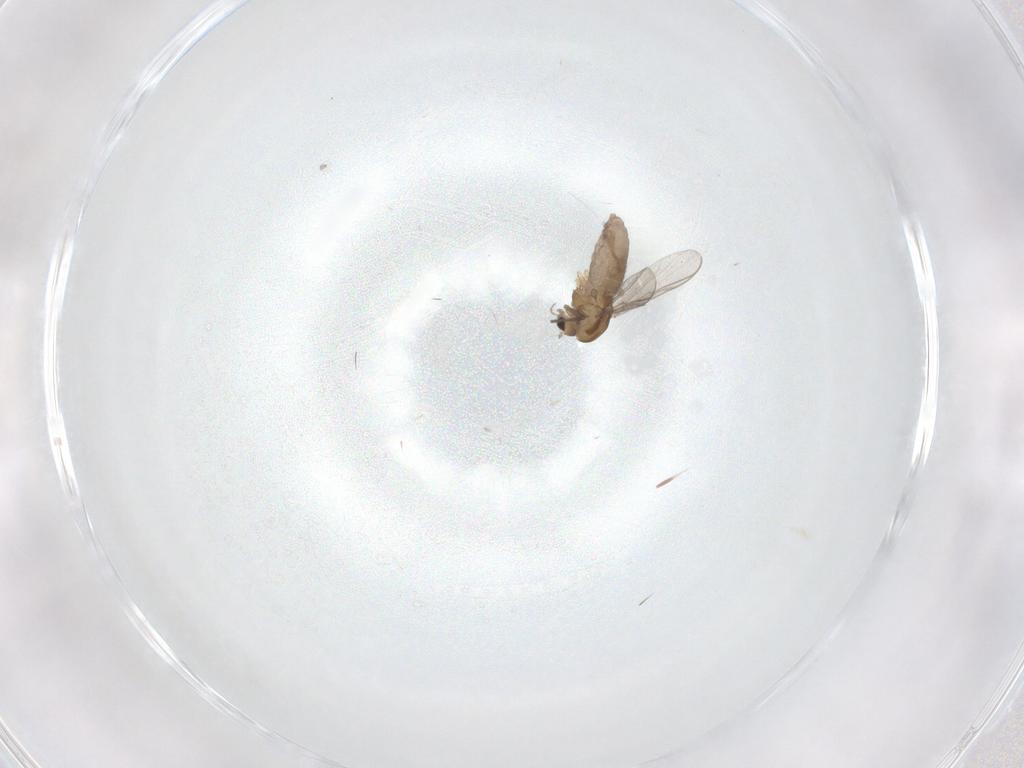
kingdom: Animalia
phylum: Arthropoda
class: Insecta
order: Diptera
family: Chironomidae
